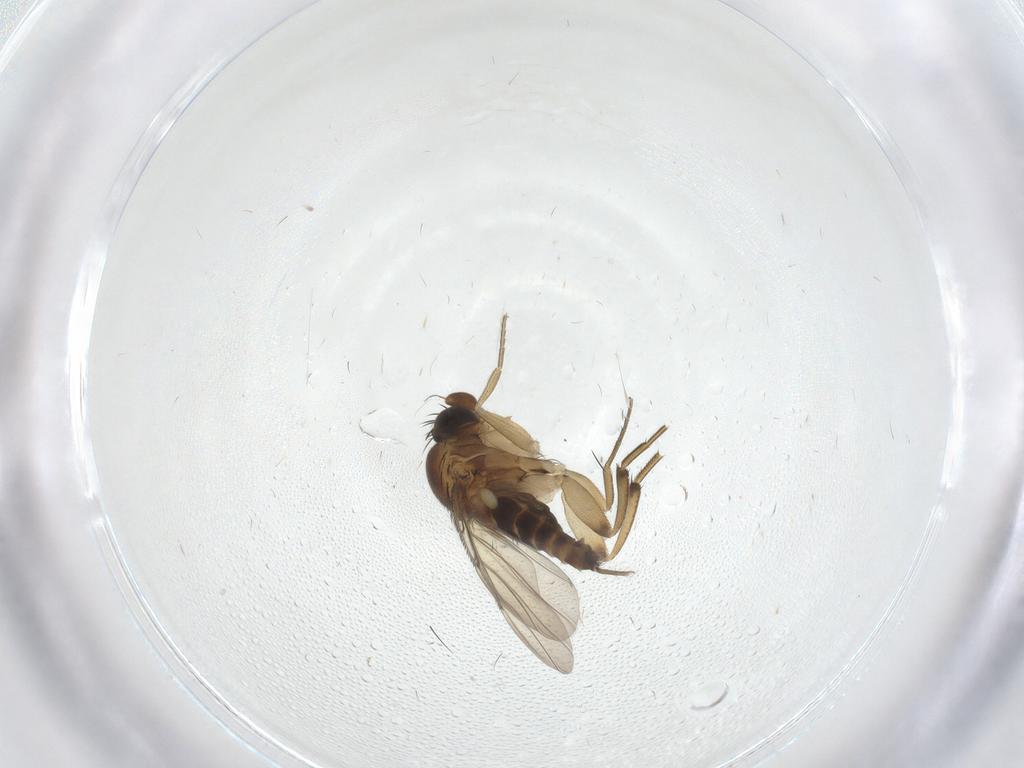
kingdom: Animalia
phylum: Arthropoda
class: Insecta
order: Diptera
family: Phoridae
